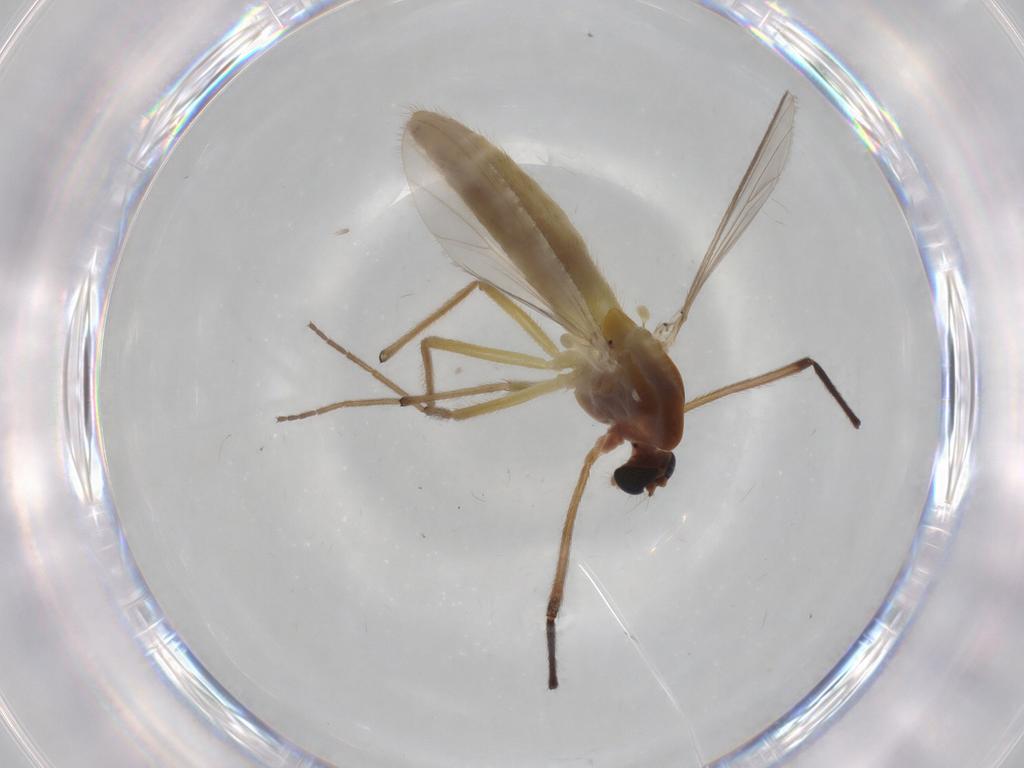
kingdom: Animalia
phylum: Arthropoda
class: Insecta
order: Diptera
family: Chironomidae
